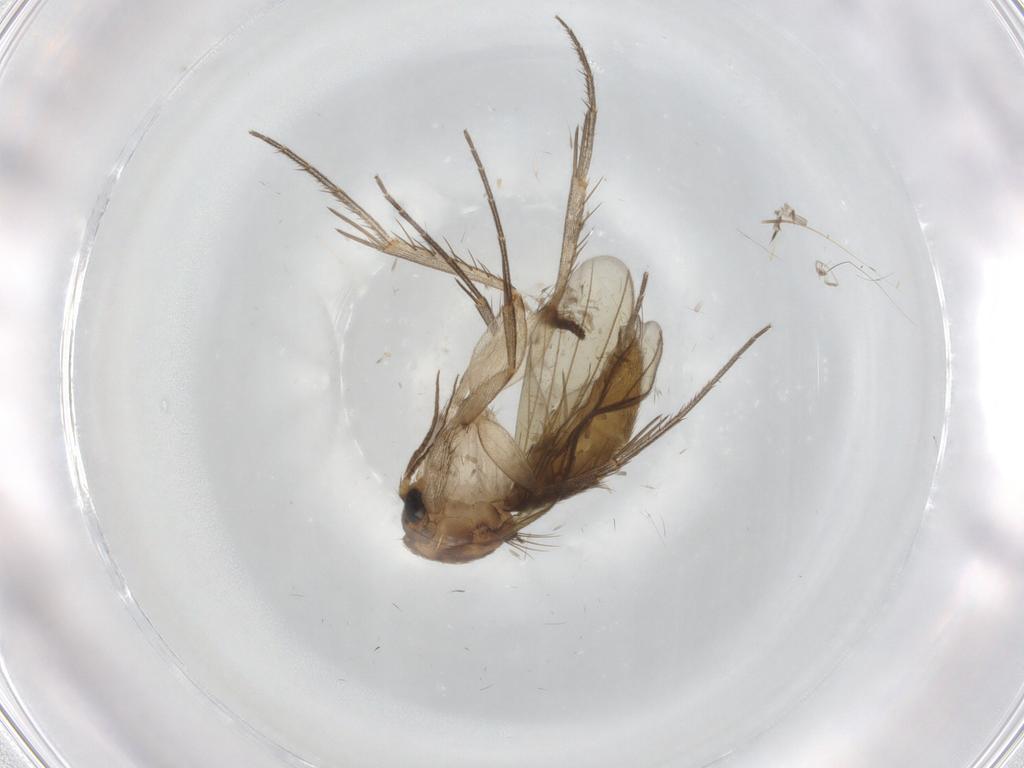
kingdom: Animalia
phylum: Arthropoda
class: Insecta
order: Diptera
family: Mycetophilidae
